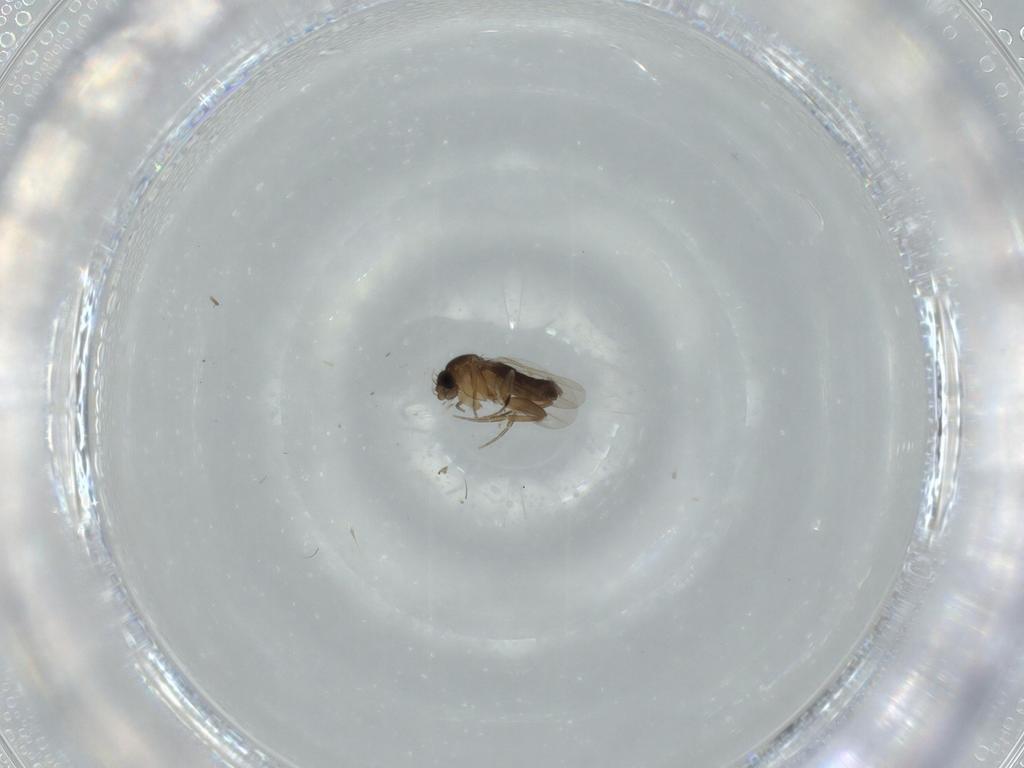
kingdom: Animalia
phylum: Arthropoda
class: Insecta
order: Diptera
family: Phoridae
